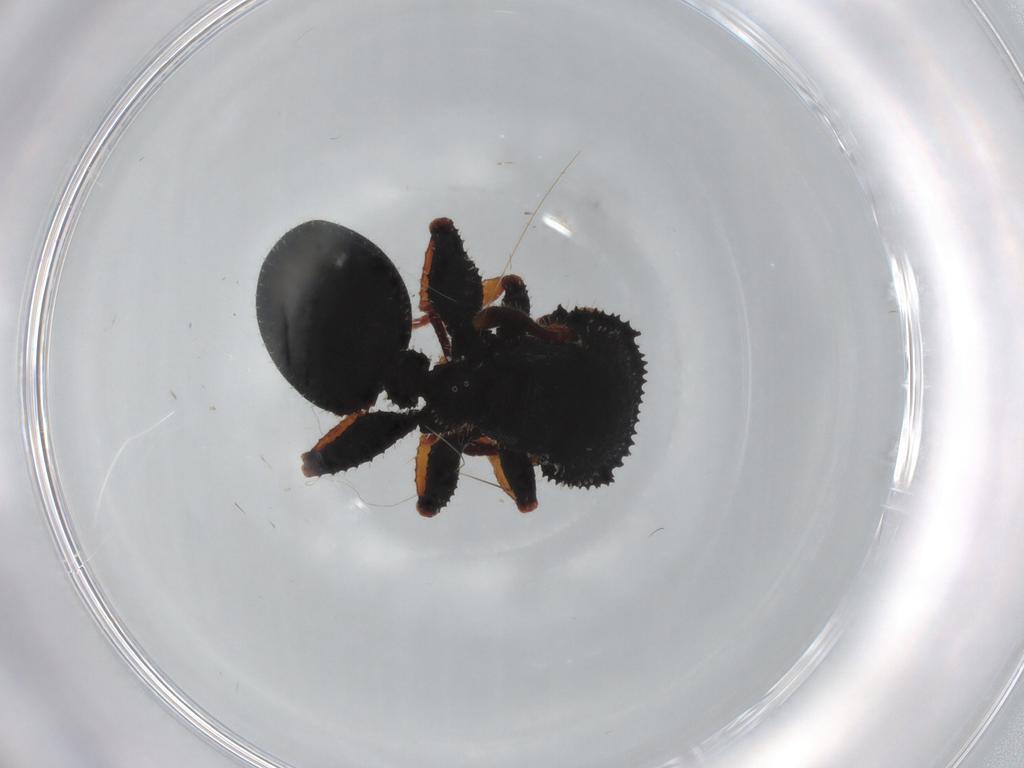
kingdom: Animalia
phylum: Arthropoda
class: Insecta
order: Hymenoptera
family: Formicidae
